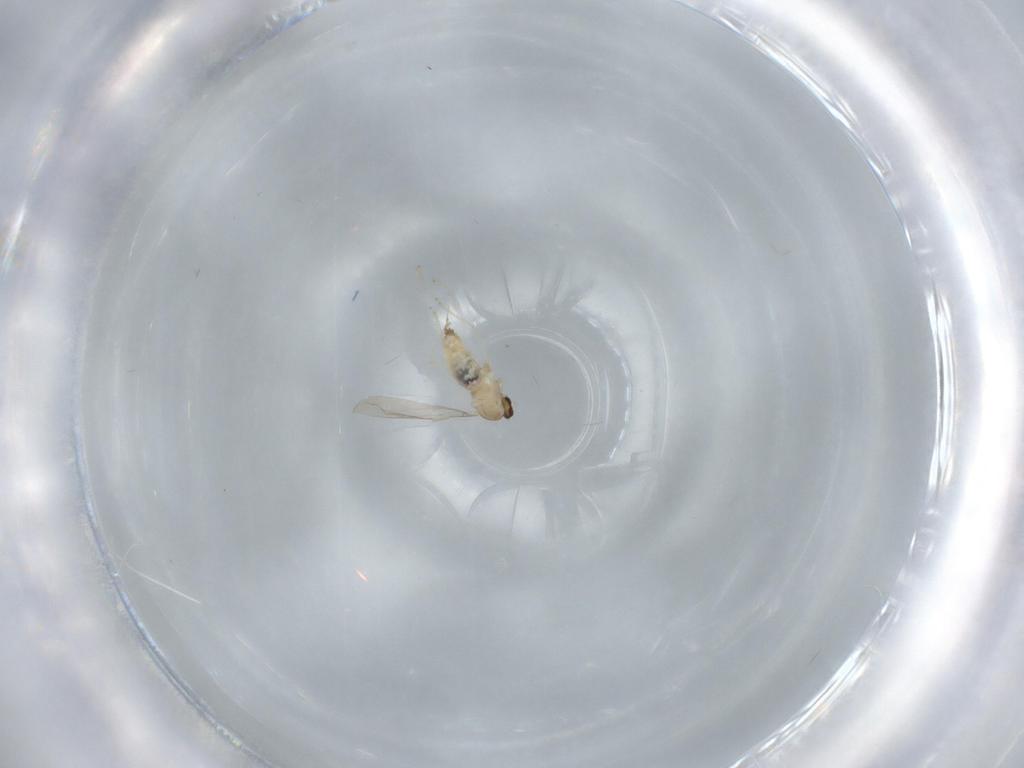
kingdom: Animalia
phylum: Arthropoda
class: Insecta
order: Diptera
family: Cecidomyiidae
